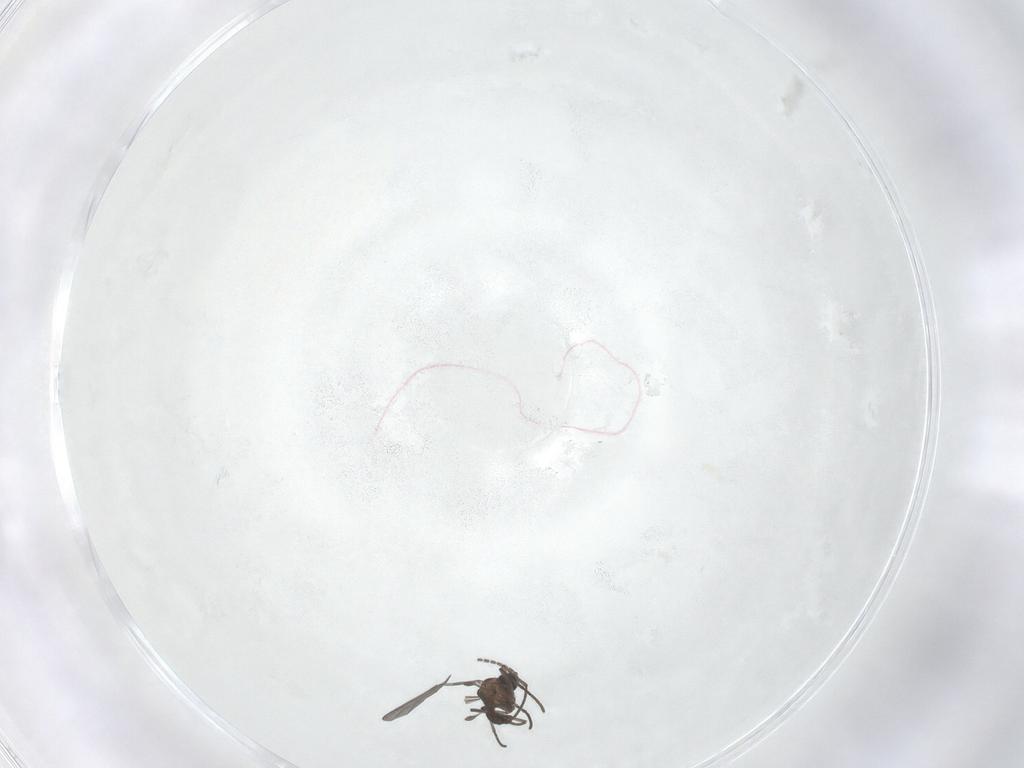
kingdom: Animalia
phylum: Arthropoda
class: Insecta
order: Diptera
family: Sciaridae
